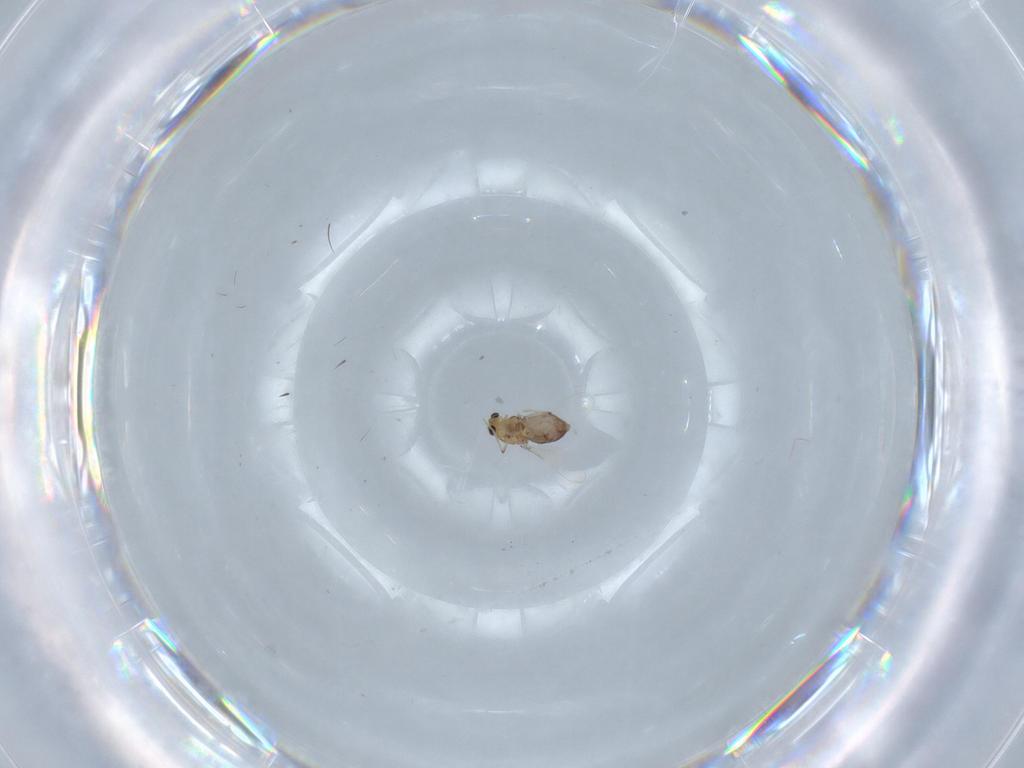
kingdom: Animalia
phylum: Arthropoda
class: Insecta
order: Diptera
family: Chironomidae
